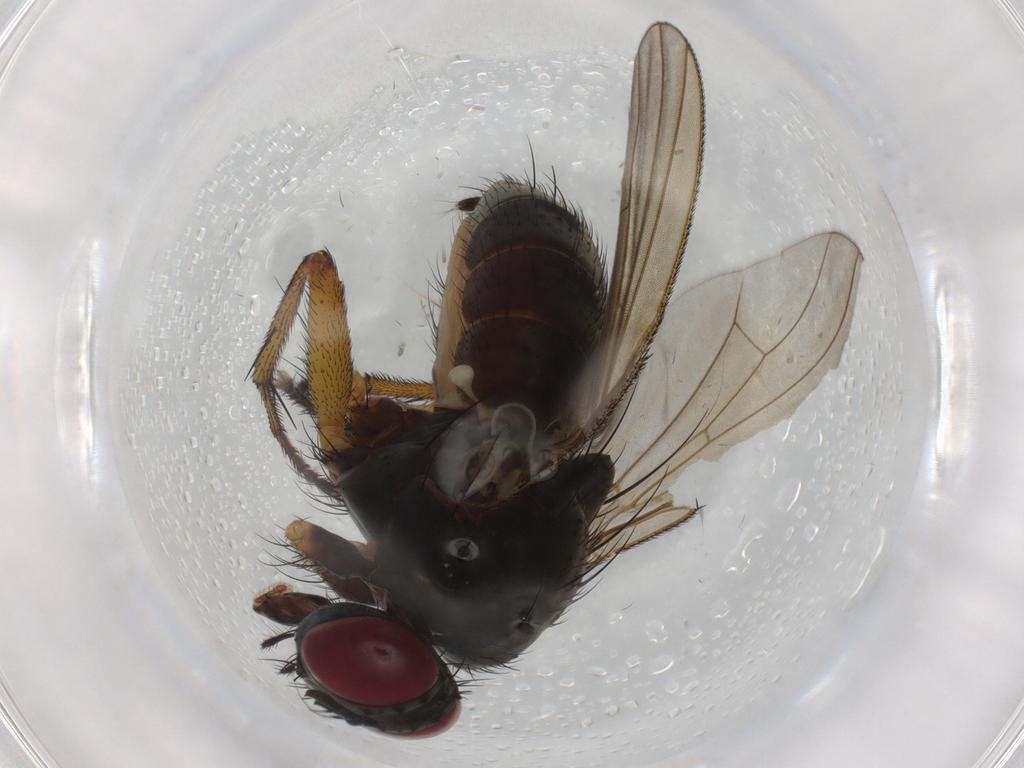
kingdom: Animalia
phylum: Arthropoda
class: Insecta
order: Diptera
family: Muscidae
